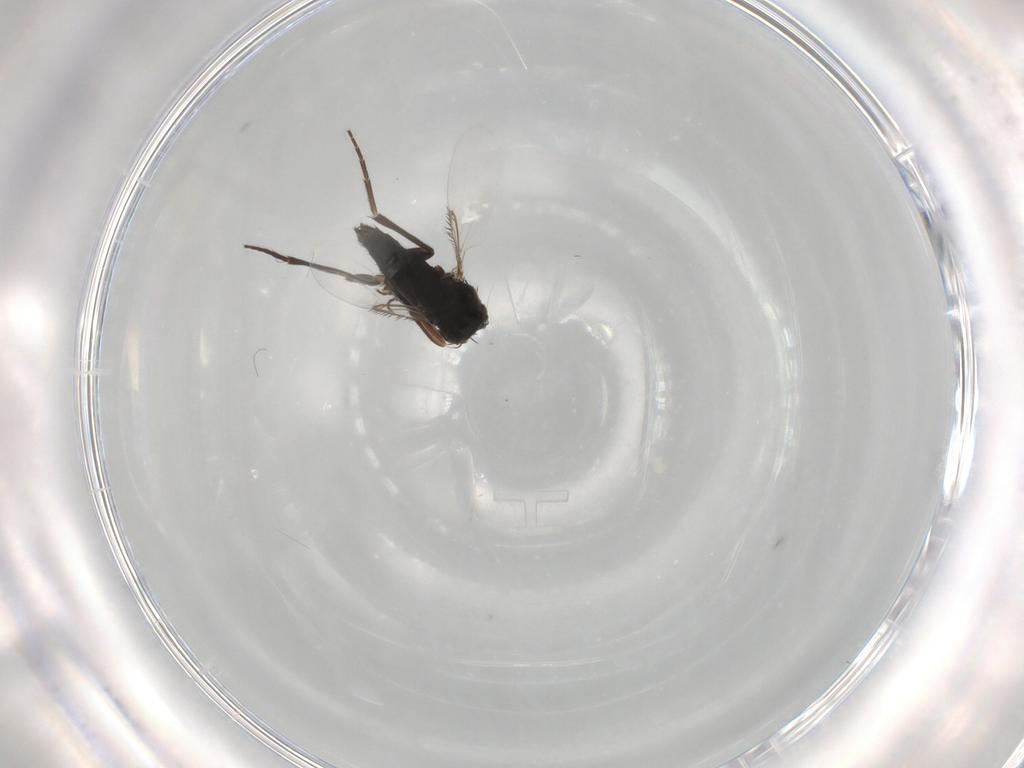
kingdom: Animalia
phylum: Arthropoda
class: Insecta
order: Diptera
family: Phoridae
